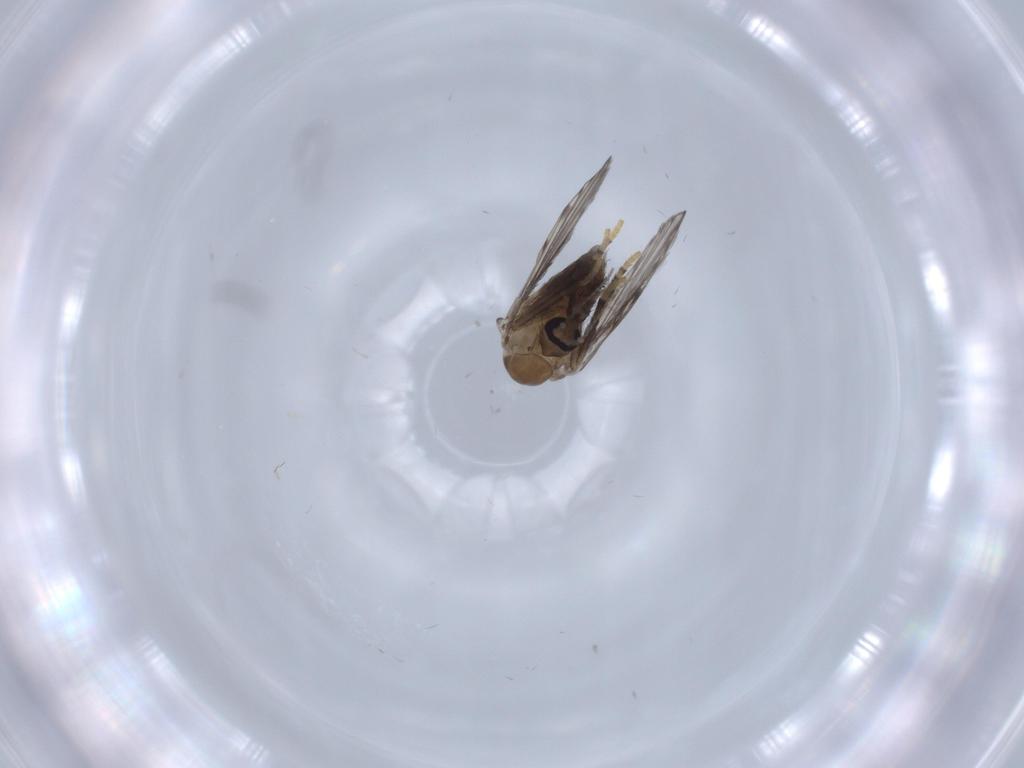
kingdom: Animalia
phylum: Arthropoda
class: Insecta
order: Diptera
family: Psychodidae
